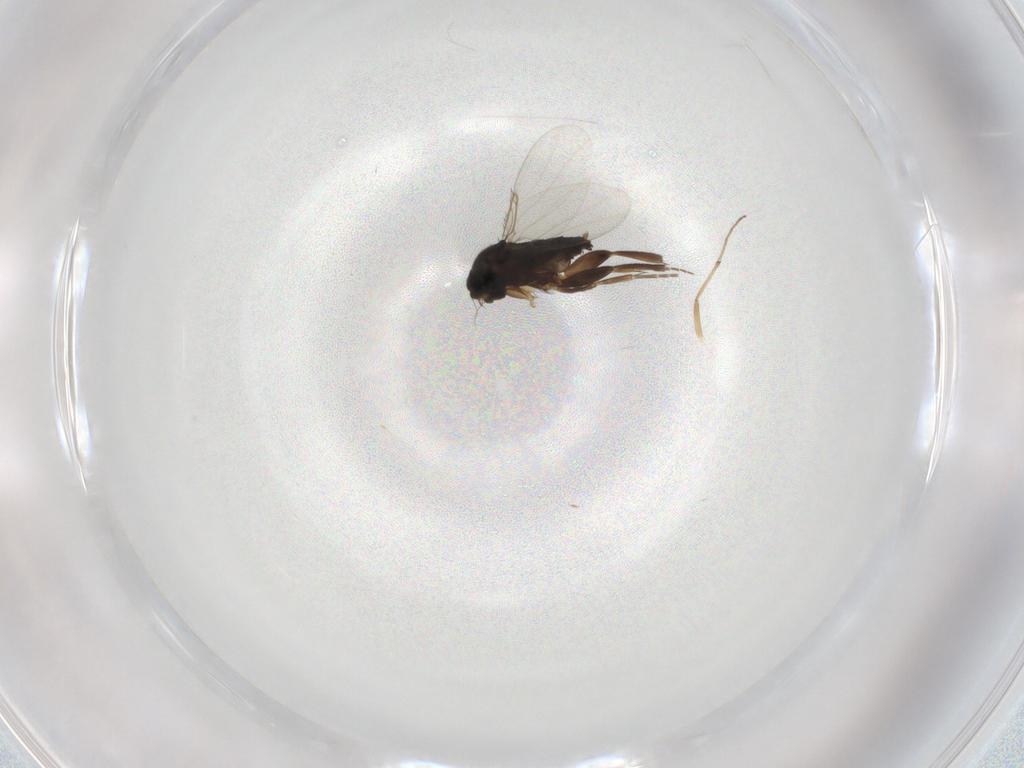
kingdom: Animalia
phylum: Arthropoda
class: Insecta
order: Diptera
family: Phoridae
